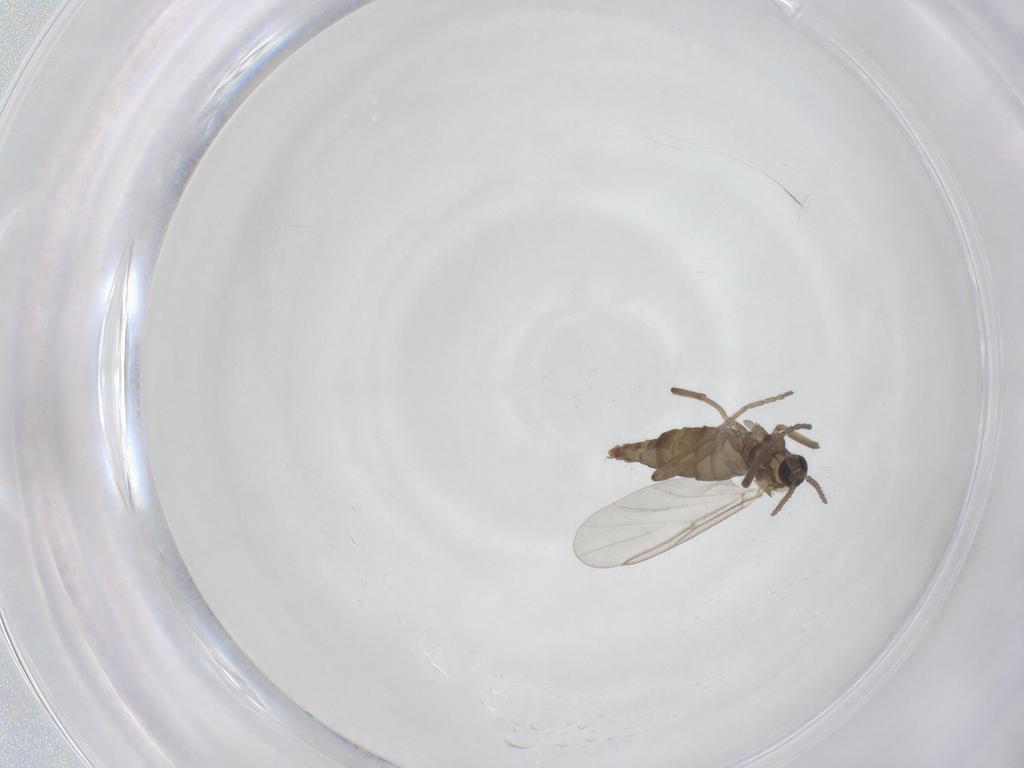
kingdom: Animalia
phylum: Arthropoda
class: Insecta
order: Diptera
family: Cecidomyiidae
